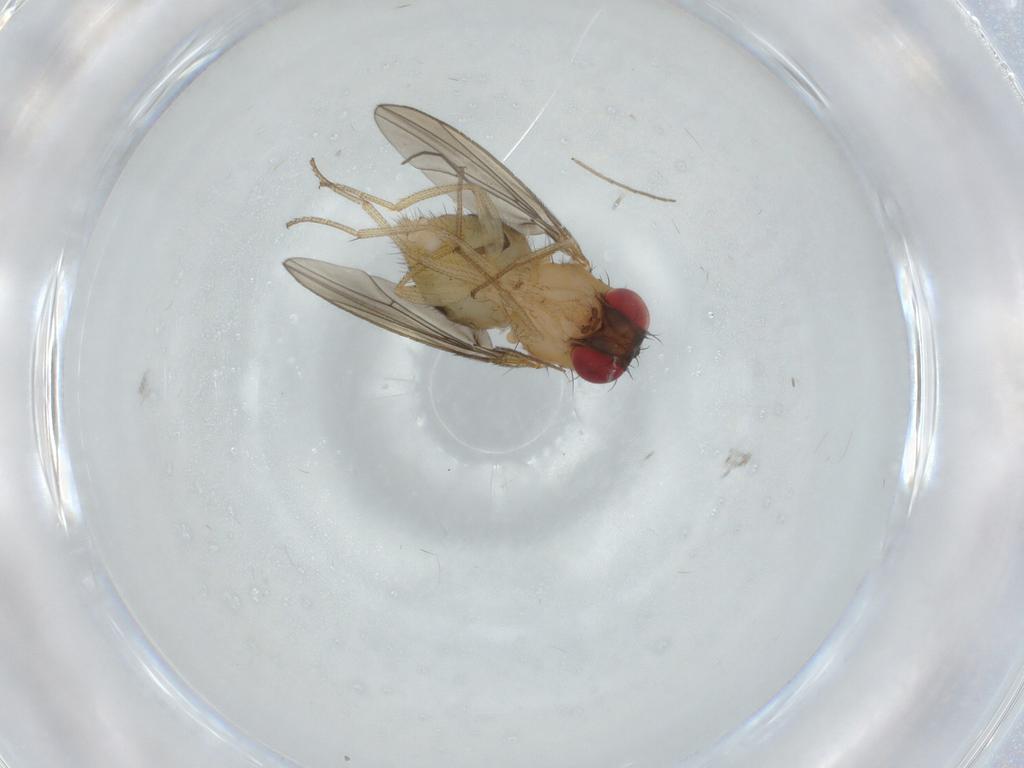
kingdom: Animalia
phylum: Arthropoda
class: Insecta
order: Diptera
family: Drosophilidae
